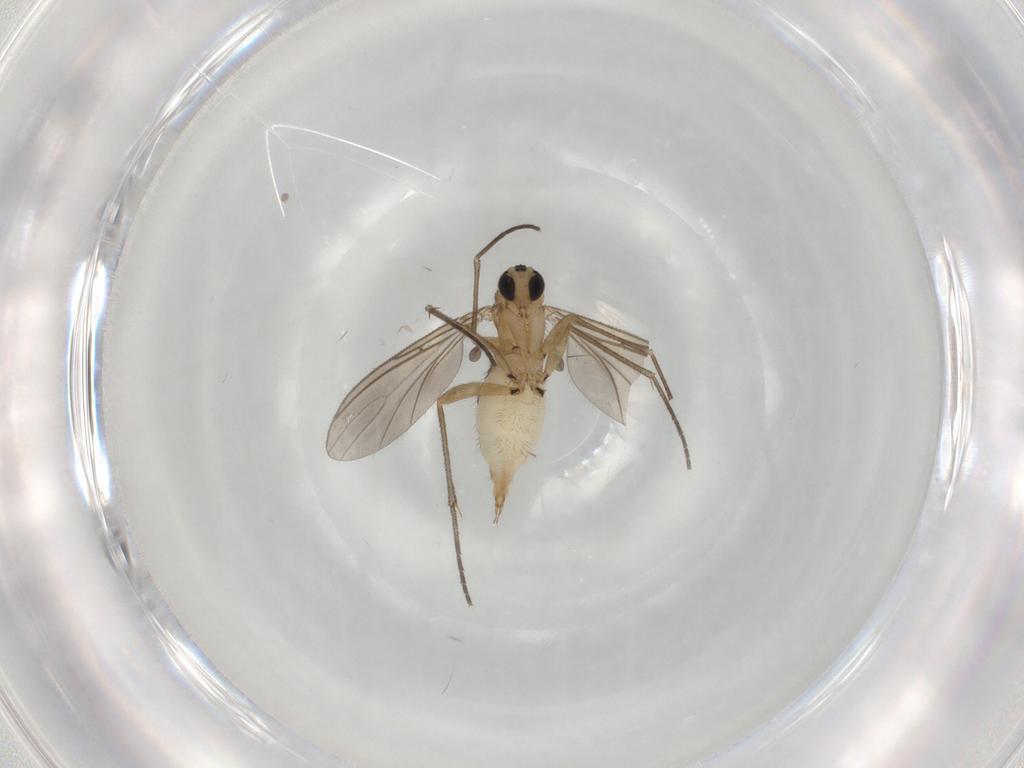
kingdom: Animalia
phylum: Arthropoda
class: Insecta
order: Diptera
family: Sciaridae
